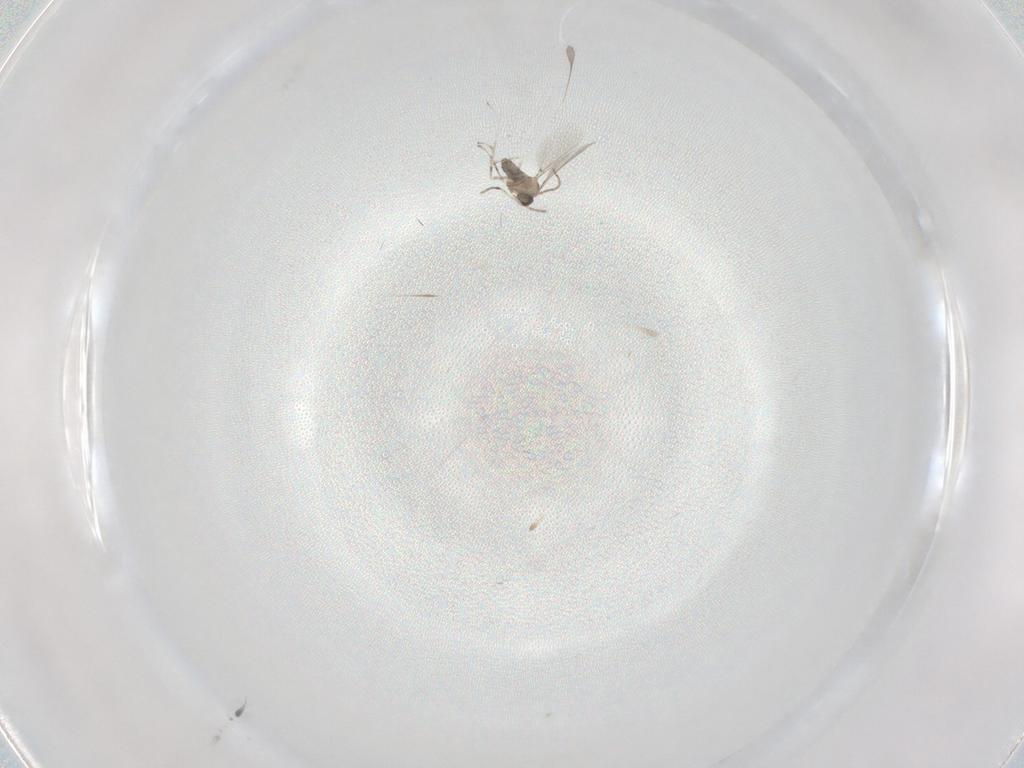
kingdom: Animalia
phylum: Arthropoda
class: Insecta
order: Diptera
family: Cecidomyiidae
